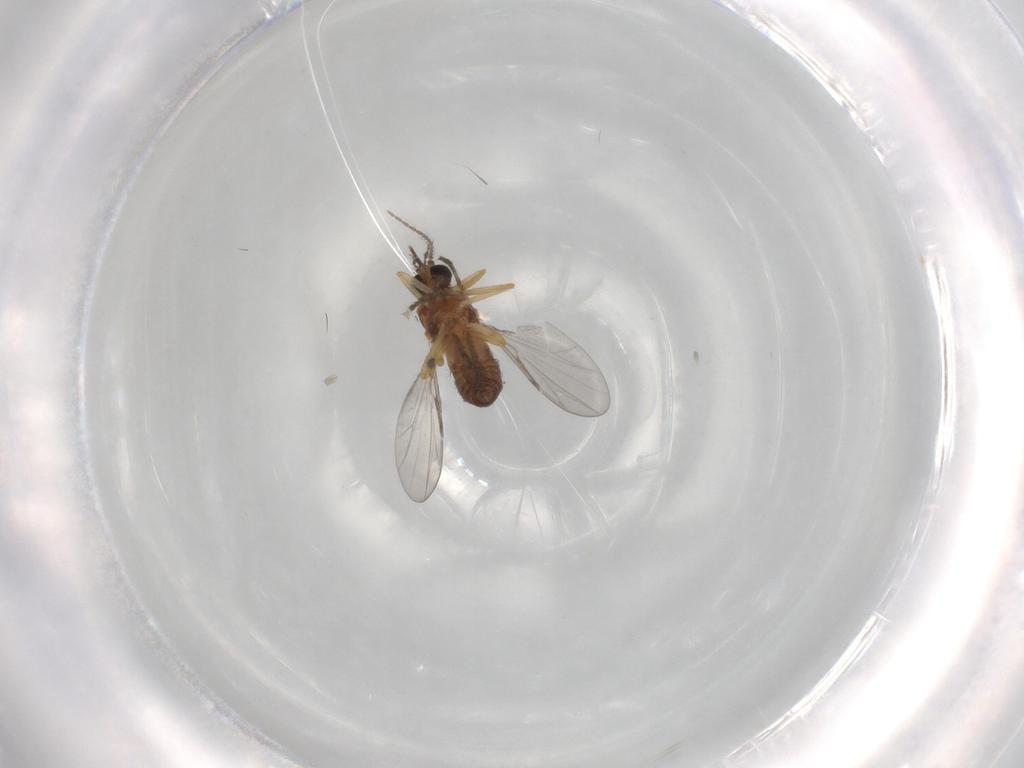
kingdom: Animalia
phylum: Arthropoda
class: Insecta
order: Diptera
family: Ceratopogonidae
